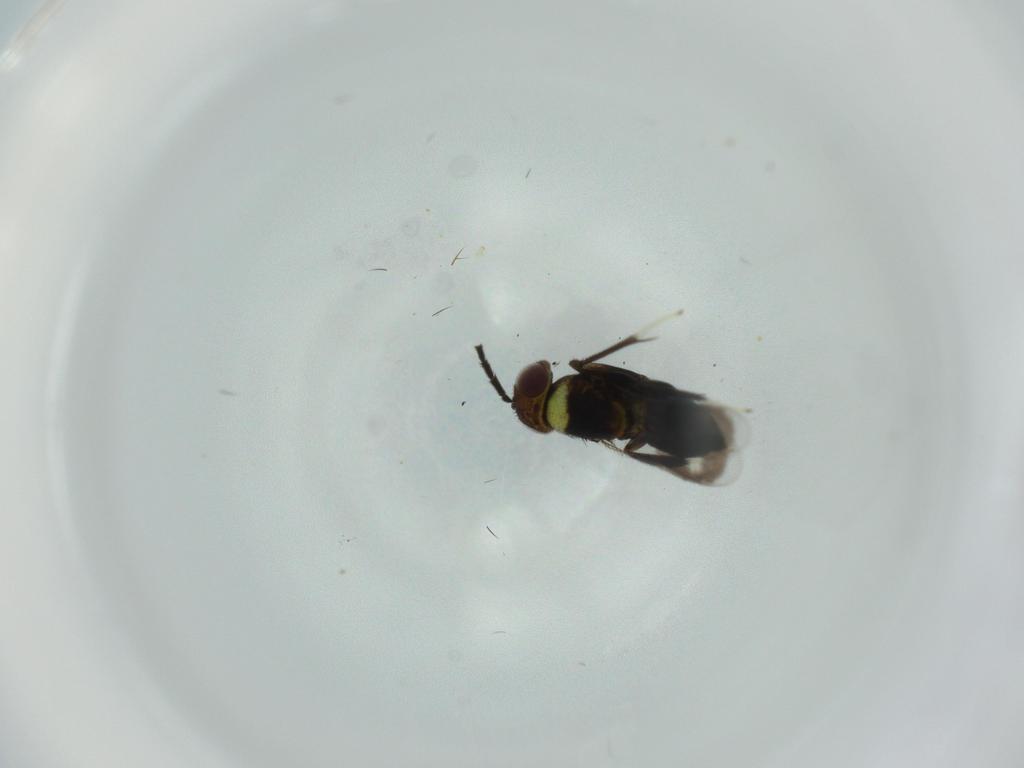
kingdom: Animalia
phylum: Arthropoda
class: Insecta
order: Hymenoptera
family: Aphelinidae
